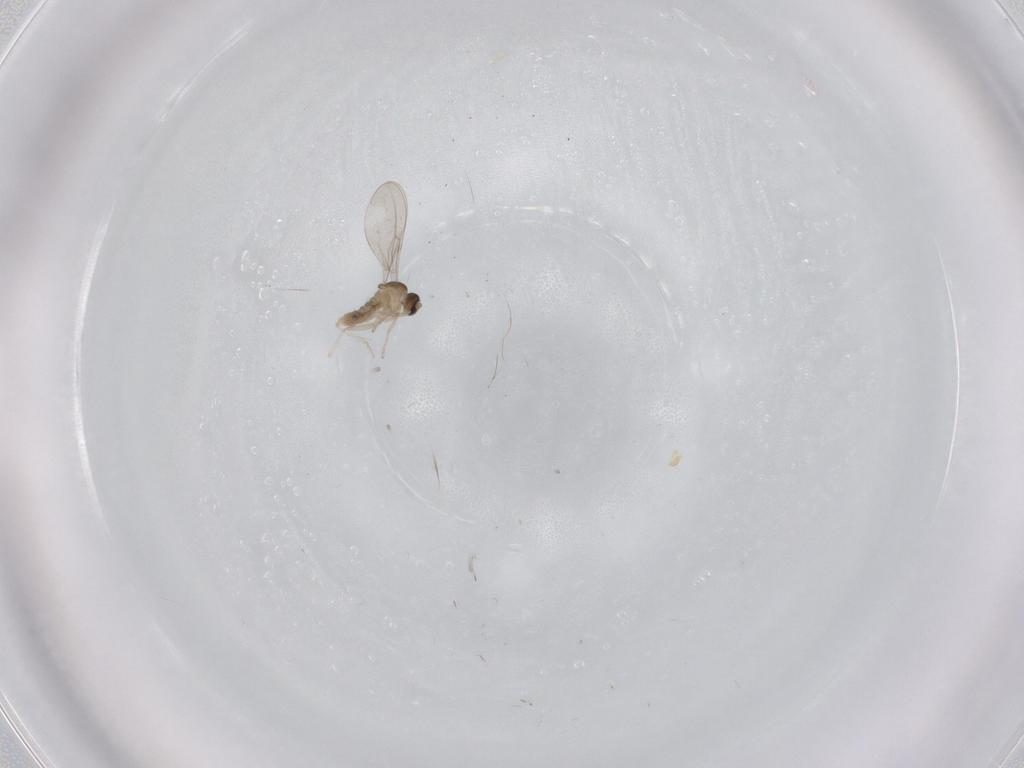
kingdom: Animalia
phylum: Arthropoda
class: Insecta
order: Diptera
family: Cecidomyiidae
